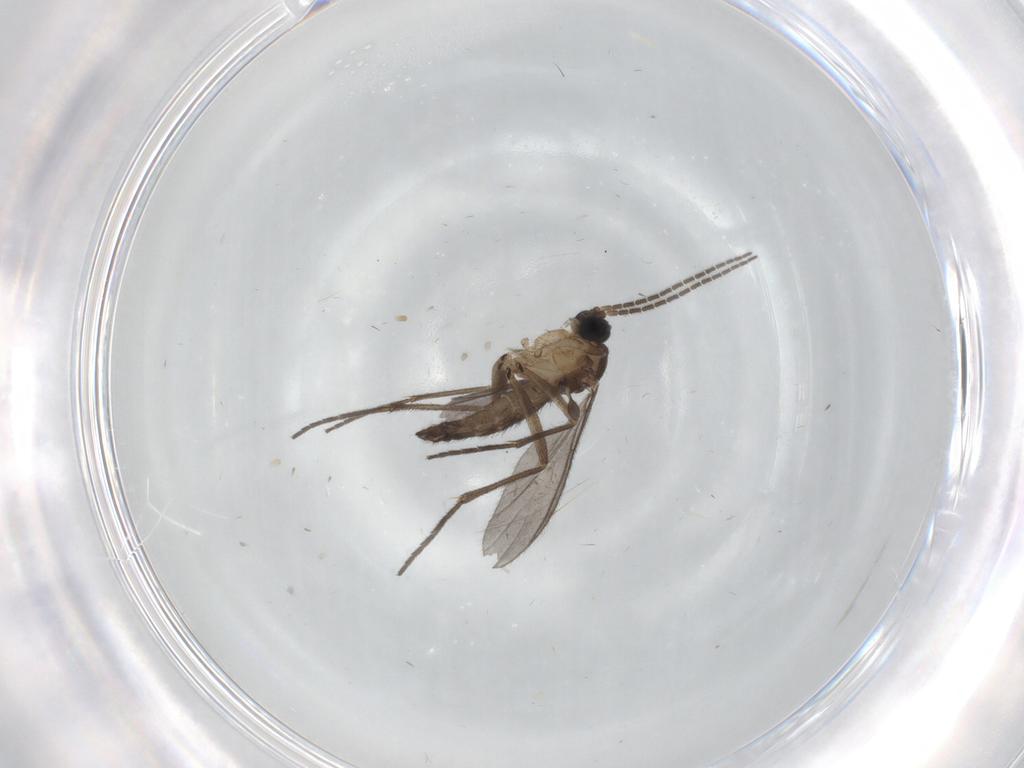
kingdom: Animalia
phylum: Arthropoda
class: Insecta
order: Diptera
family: Sciaridae
